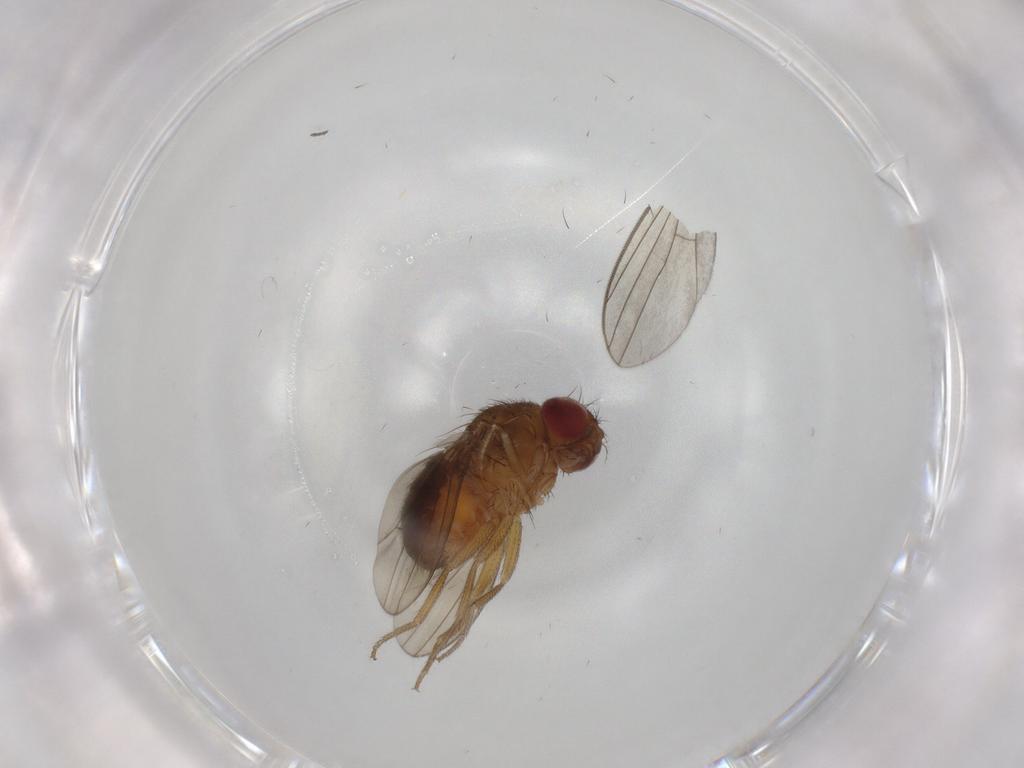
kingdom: Animalia
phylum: Arthropoda
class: Insecta
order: Diptera
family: Drosophilidae
